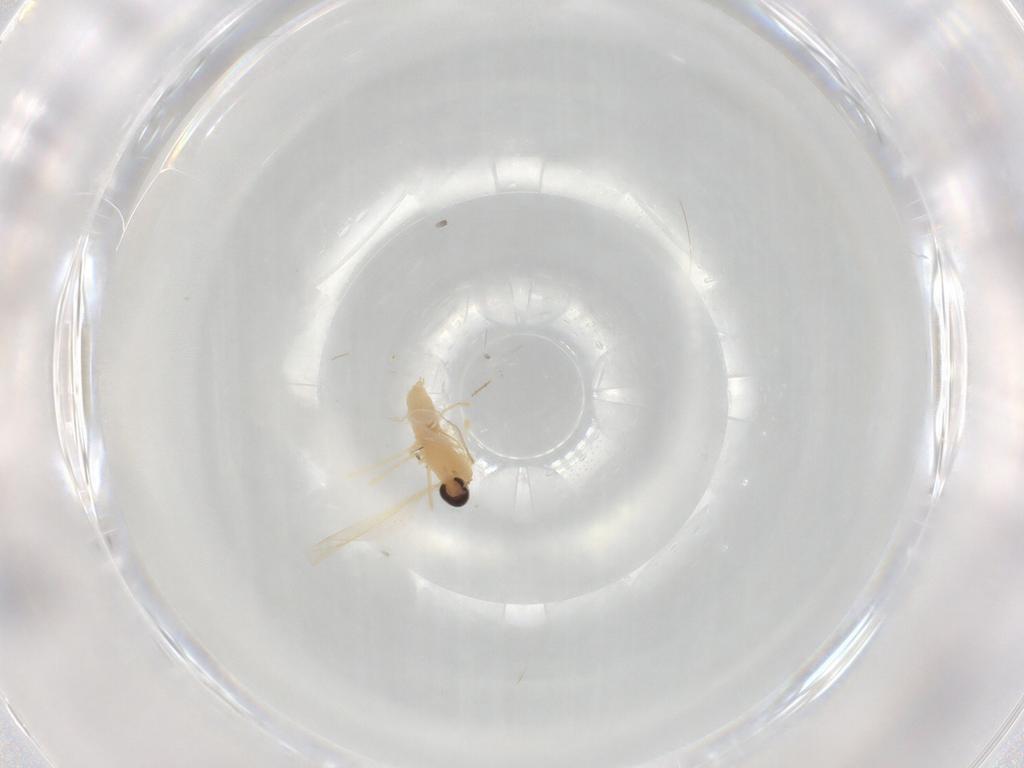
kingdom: Animalia
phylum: Arthropoda
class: Insecta
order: Diptera
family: Cecidomyiidae
